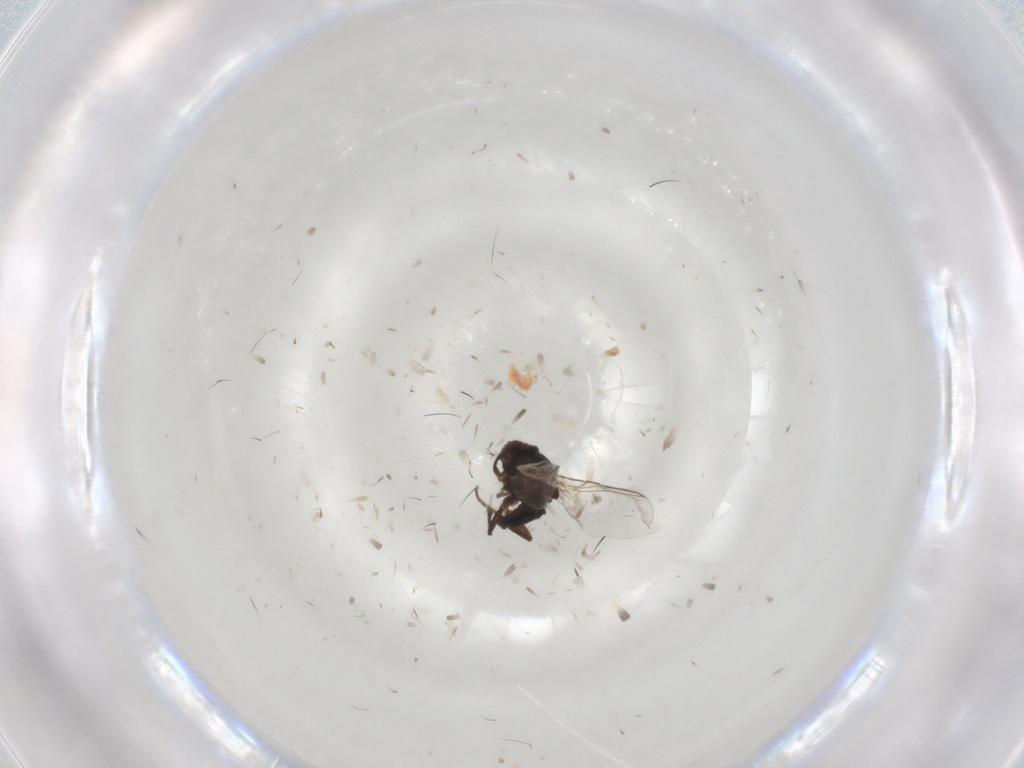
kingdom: Animalia
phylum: Arthropoda
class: Insecta
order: Diptera
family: Glossinidae
